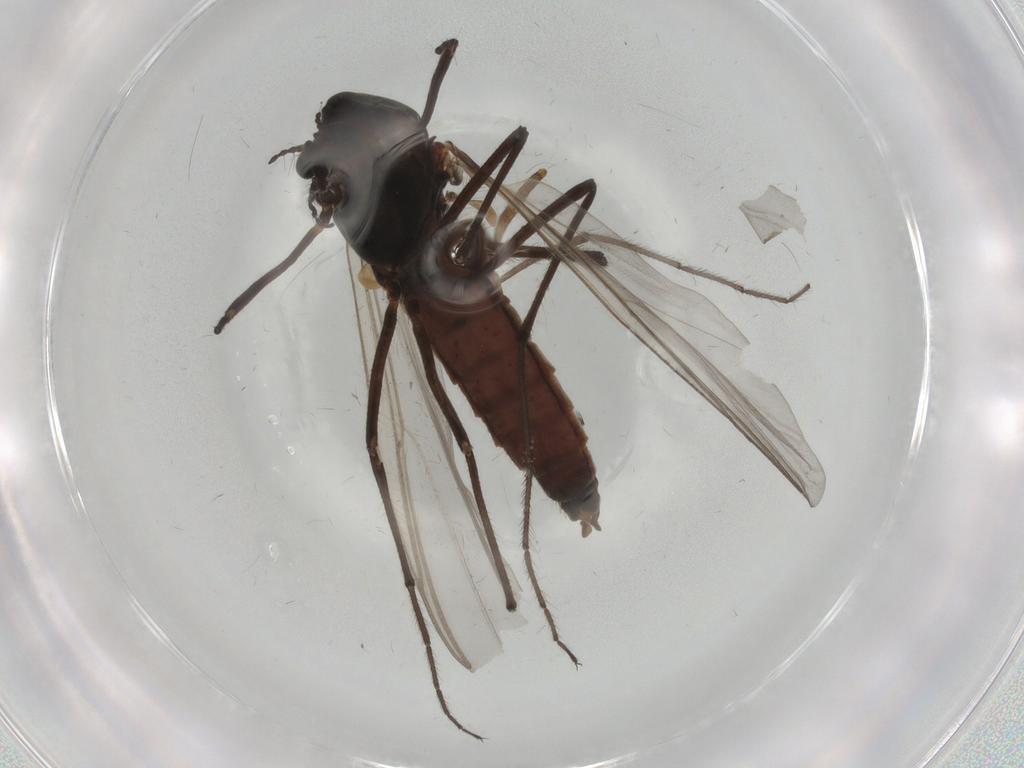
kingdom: Animalia
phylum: Arthropoda
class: Insecta
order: Diptera
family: Chironomidae
